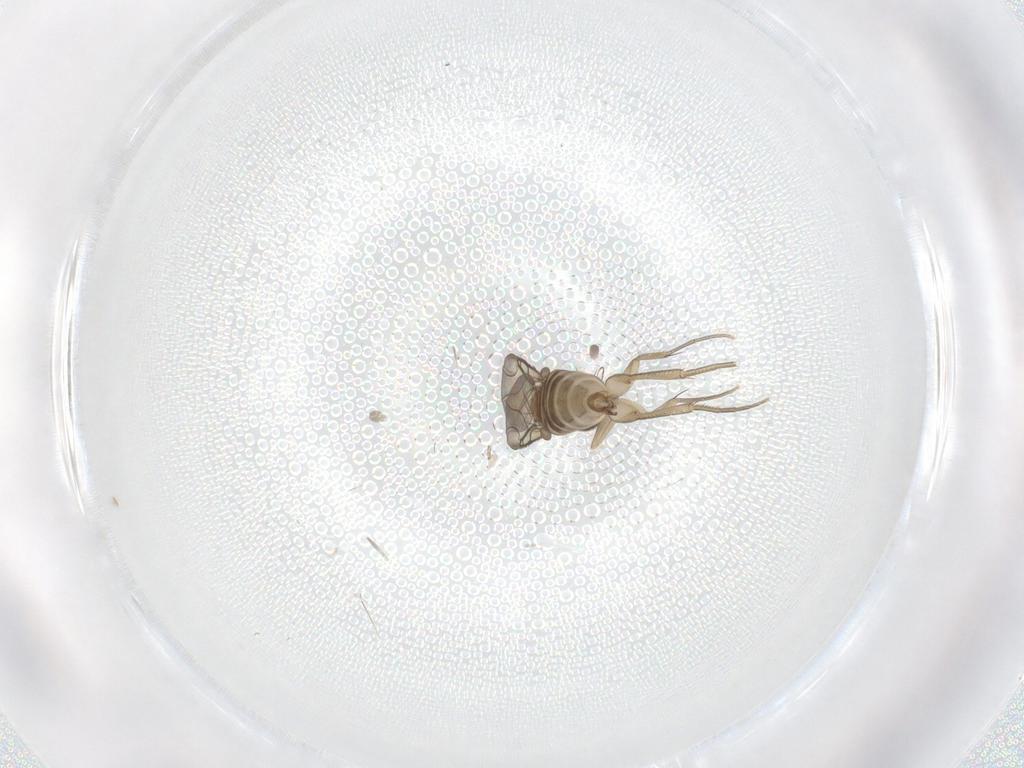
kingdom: Animalia
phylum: Arthropoda
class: Insecta
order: Diptera
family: Phoridae
